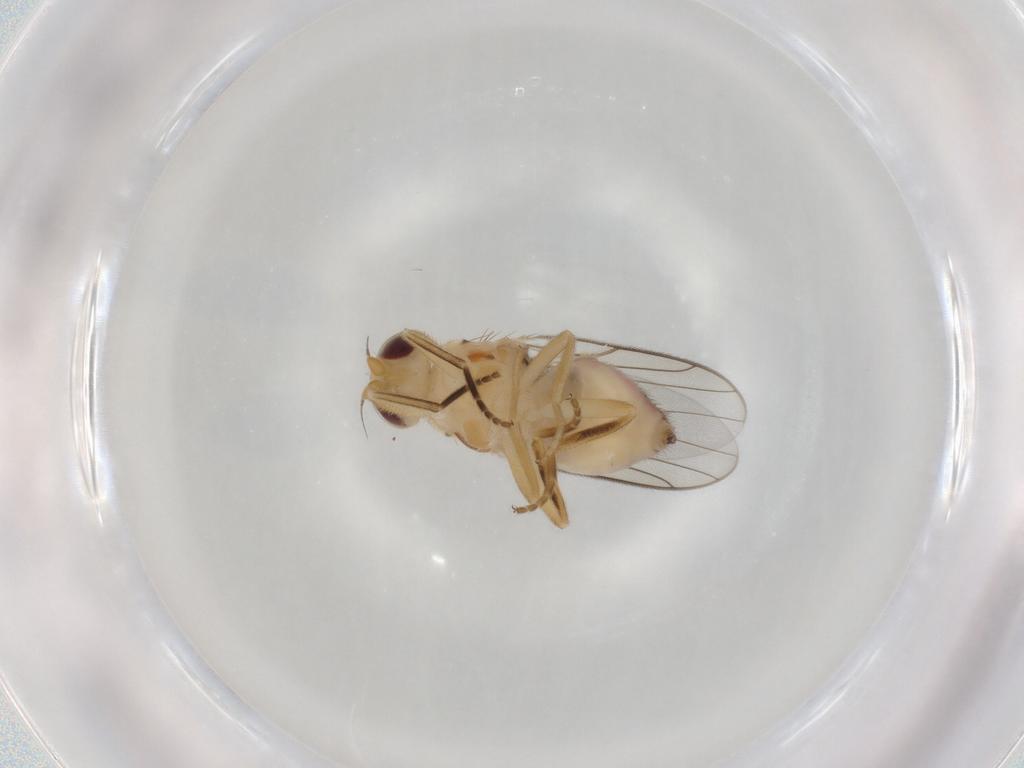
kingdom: Animalia
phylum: Arthropoda
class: Insecta
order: Diptera
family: Chloropidae
